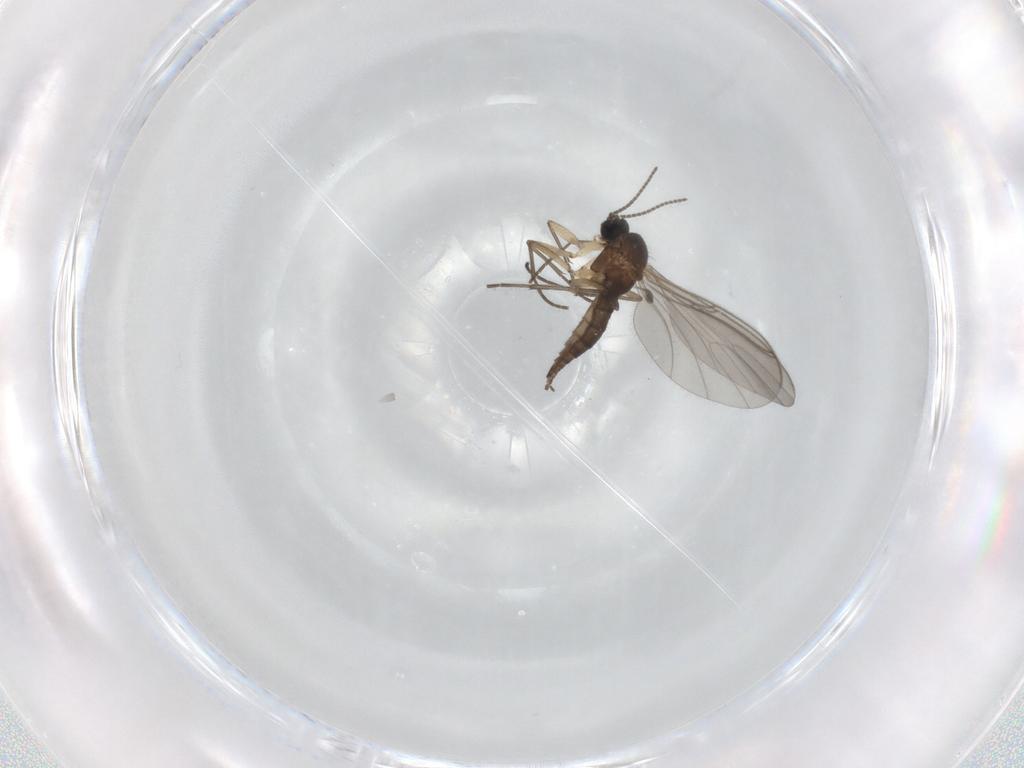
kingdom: Animalia
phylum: Arthropoda
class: Insecta
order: Diptera
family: Sciaridae
